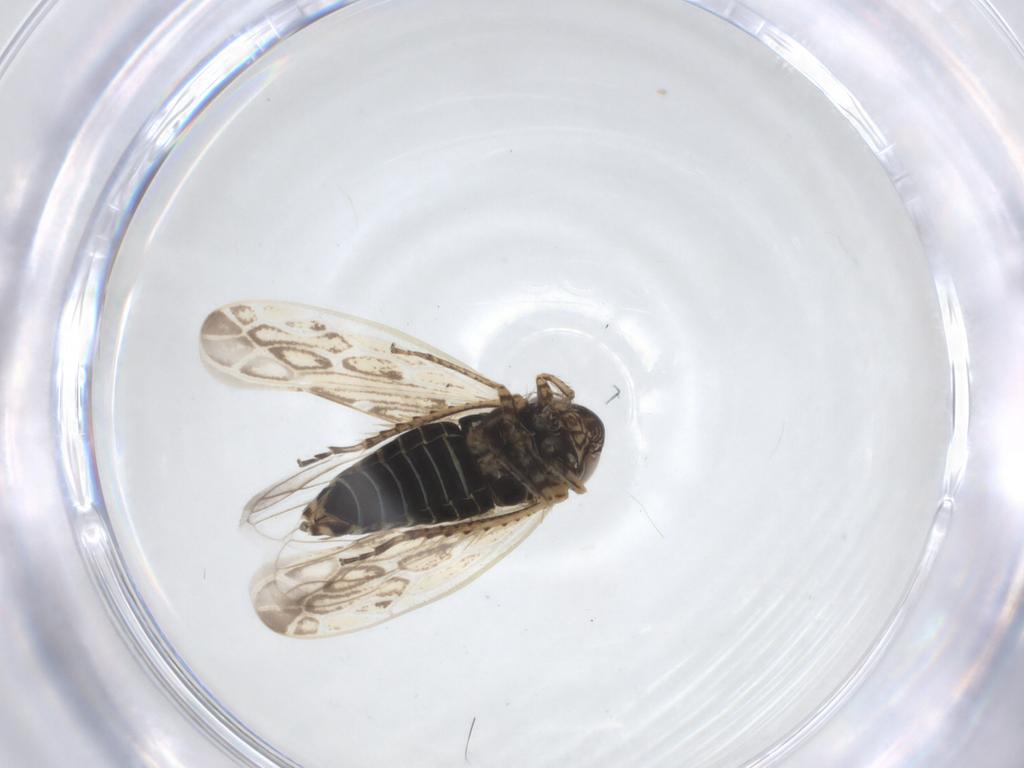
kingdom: Animalia
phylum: Arthropoda
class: Insecta
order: Hemiptera
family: Cicadellidae
